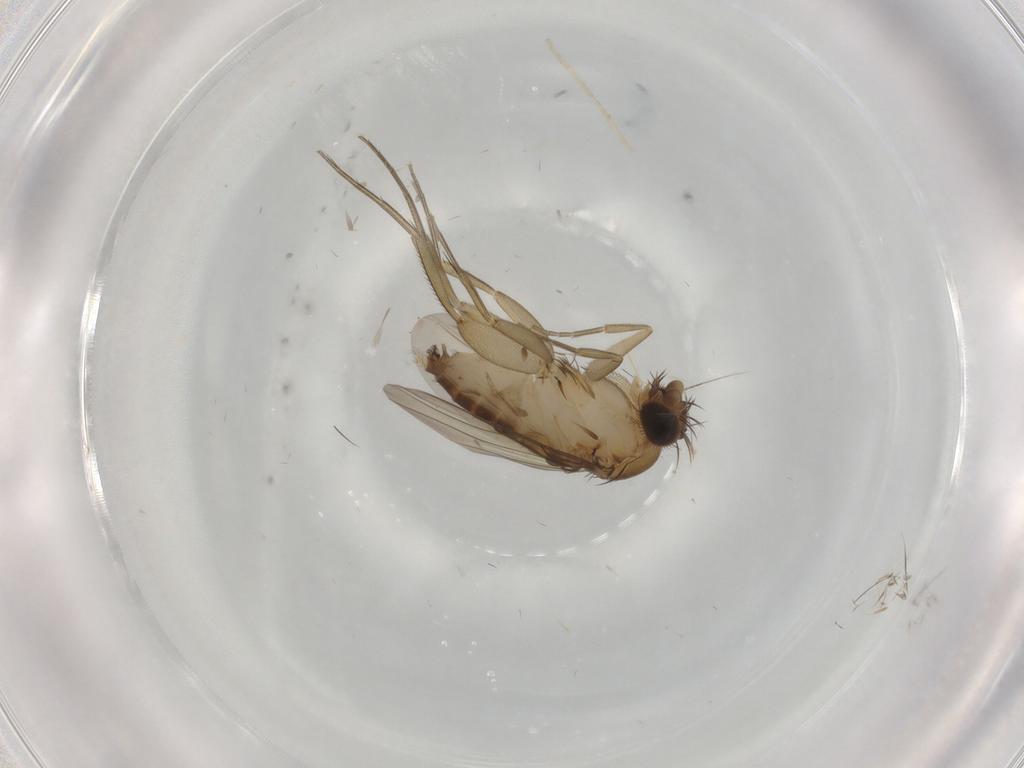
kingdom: Animalia
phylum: Arthropoda
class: Insecta
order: Diptera
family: Phoridae
